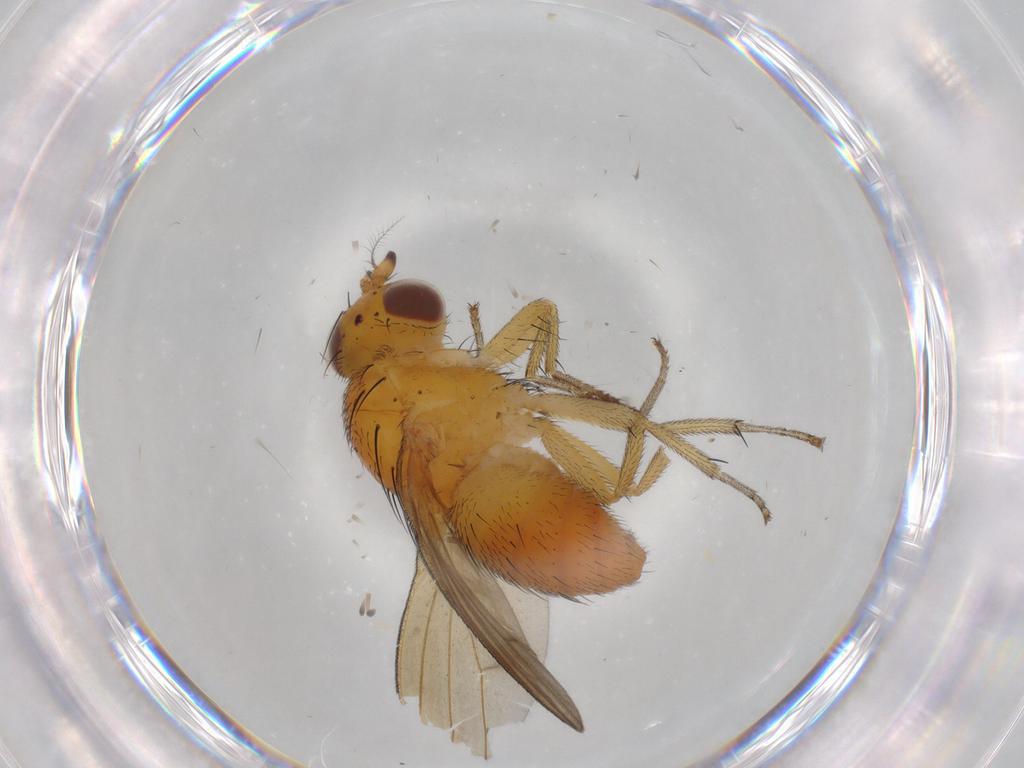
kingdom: Animalia
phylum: Arthropoda
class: Insecta
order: Diptera
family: Lauxaniidae
